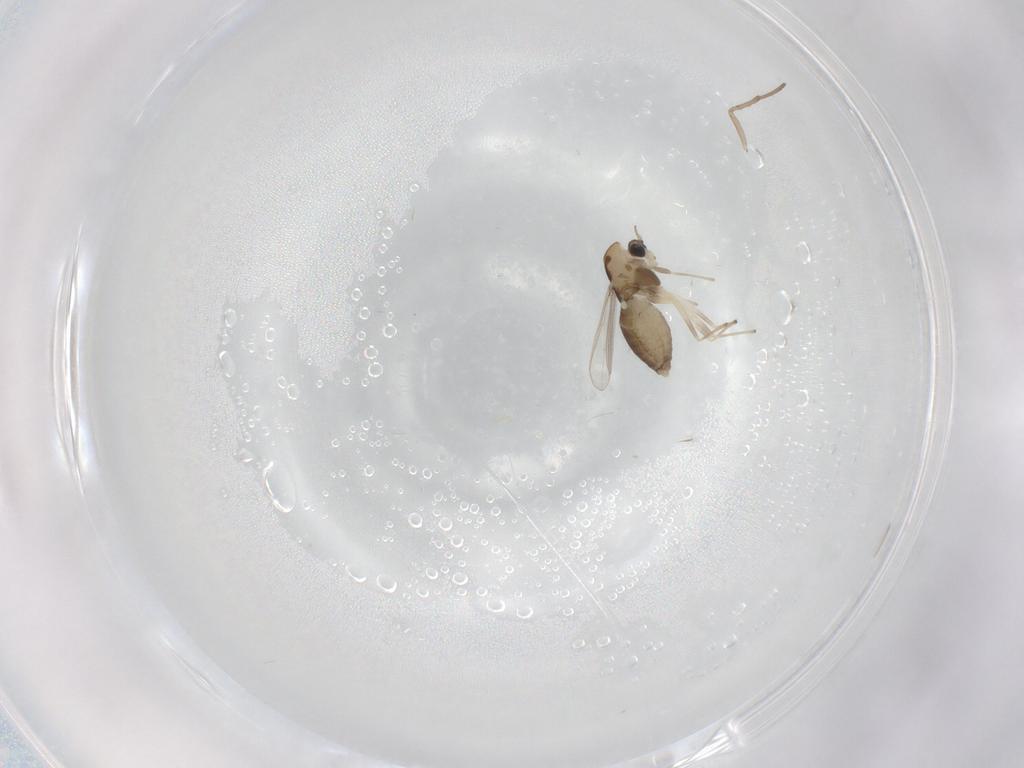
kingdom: Animalia
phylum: Arthropoda
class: Insecta
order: Diptera
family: Chironomidae
